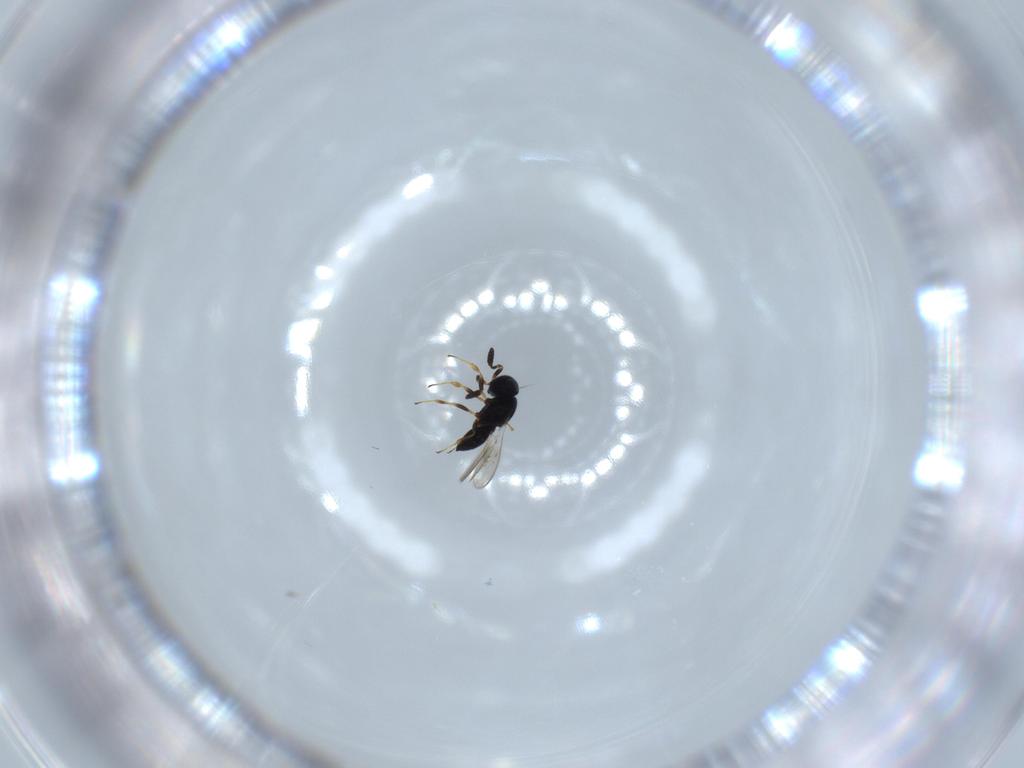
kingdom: Animalia
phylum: Arthropoda
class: Insecta
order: Hymenoptera
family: Scelionidae
